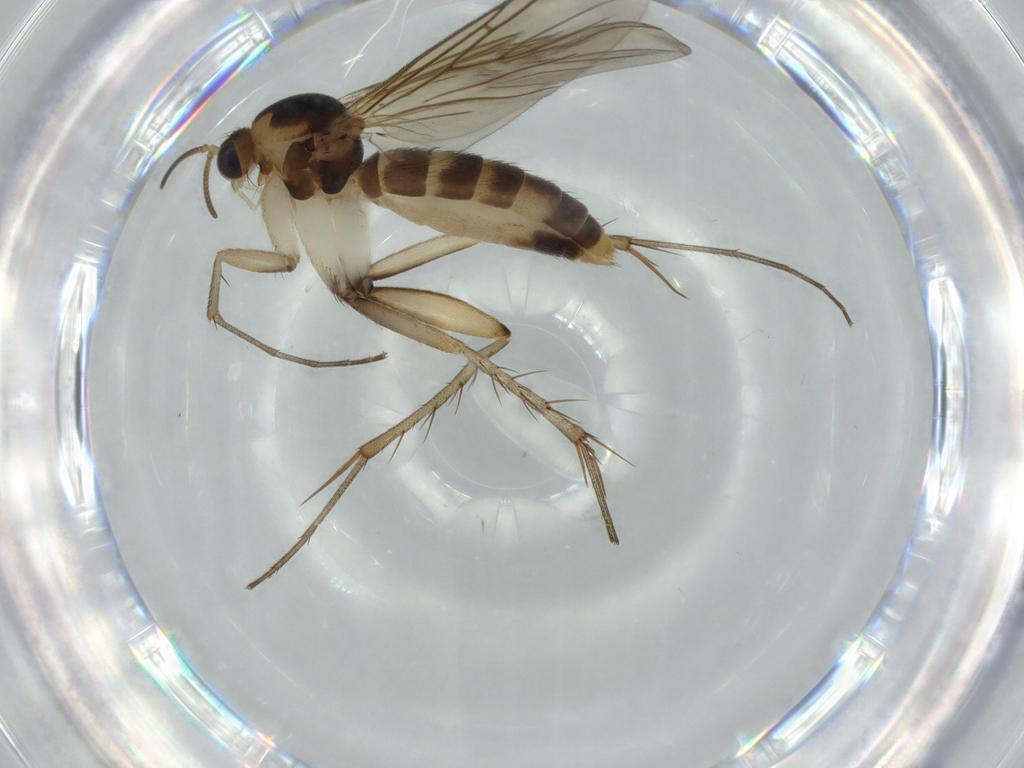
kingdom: Animalia
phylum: Arthropoda
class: Insecta
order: Diptera
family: Mycetophilidae
